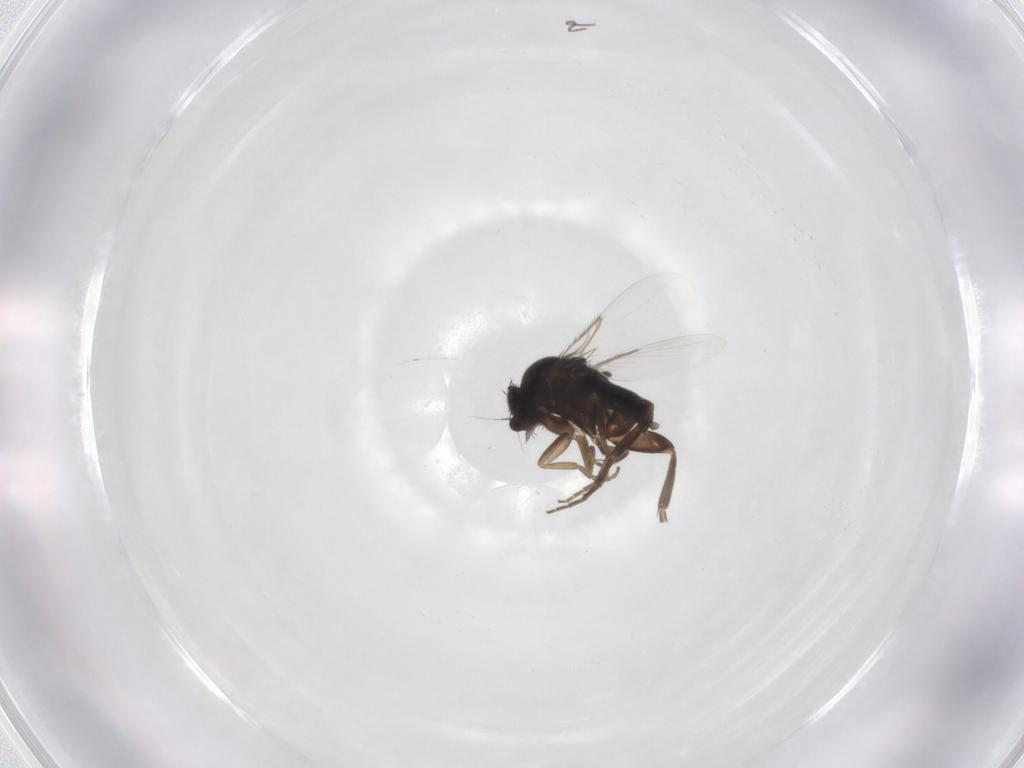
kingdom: Animalia
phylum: Arthropoda
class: Insecta
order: Diptera
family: Phoridae
